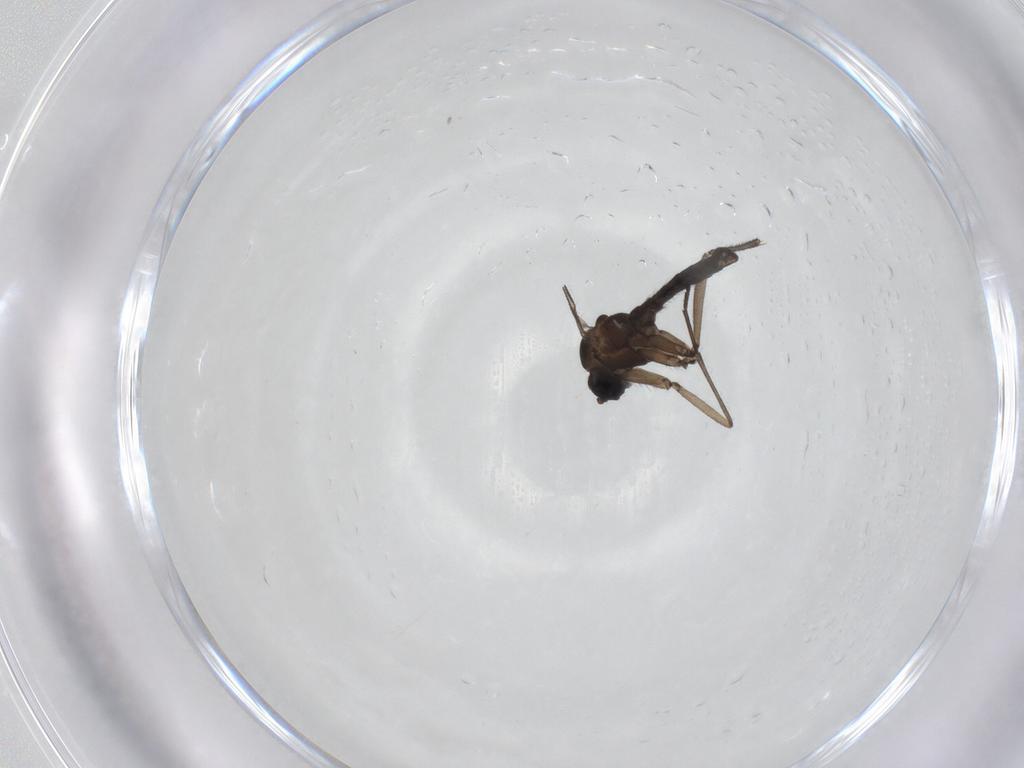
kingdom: Animalia
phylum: Arthropoda
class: Insecta
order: Diptera
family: Sciaridae
